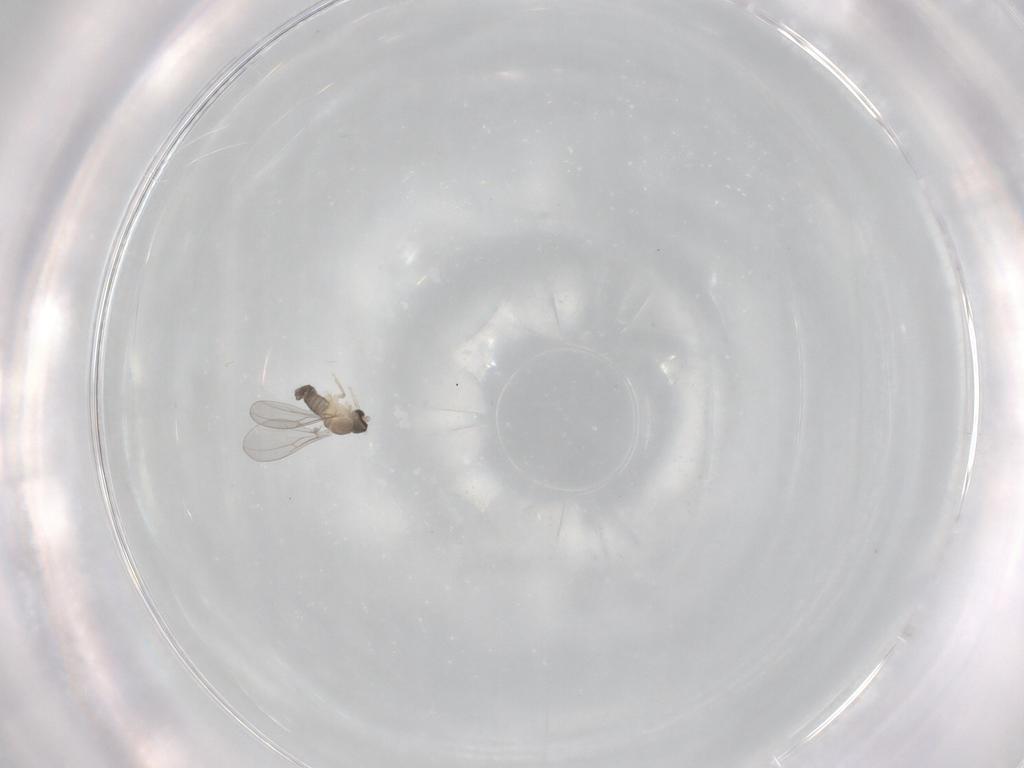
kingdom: Animalia
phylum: Arthropoda
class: Insecta
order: Diptera
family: Cecidomyiidae
